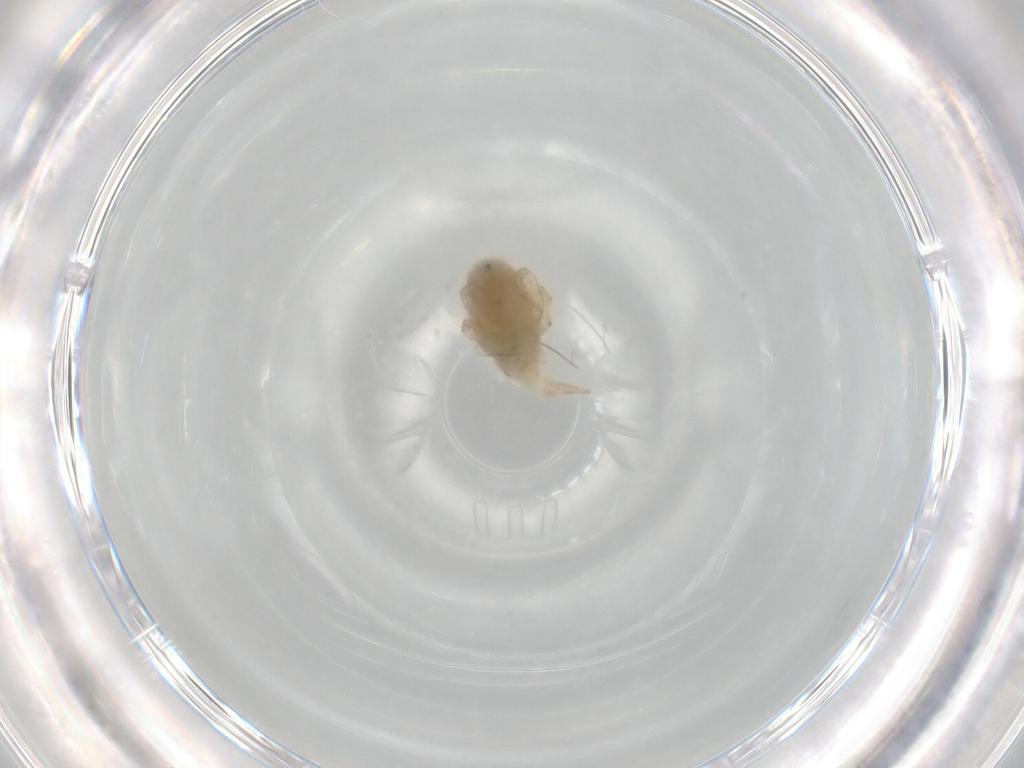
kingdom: Animalia
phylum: Arthropoda
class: Arachnida
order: Trombidiformes
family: Bdellidae
